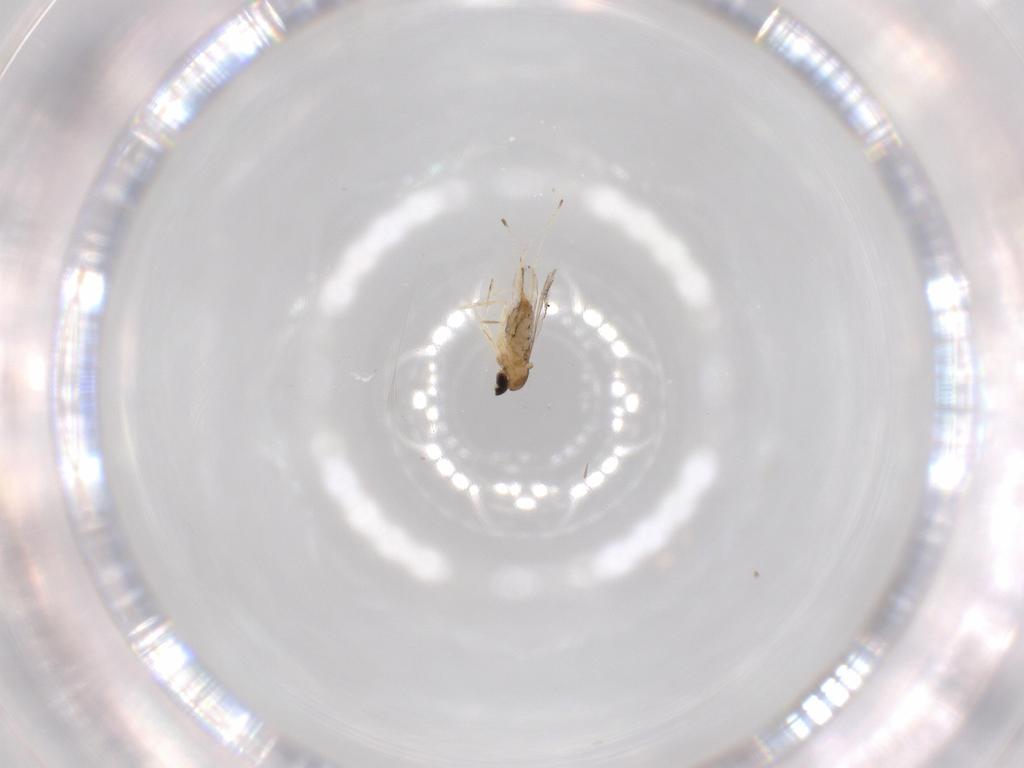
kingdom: Animalia
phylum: Arthropoda
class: Insecta
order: Diptera
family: Cecidomyiidae
